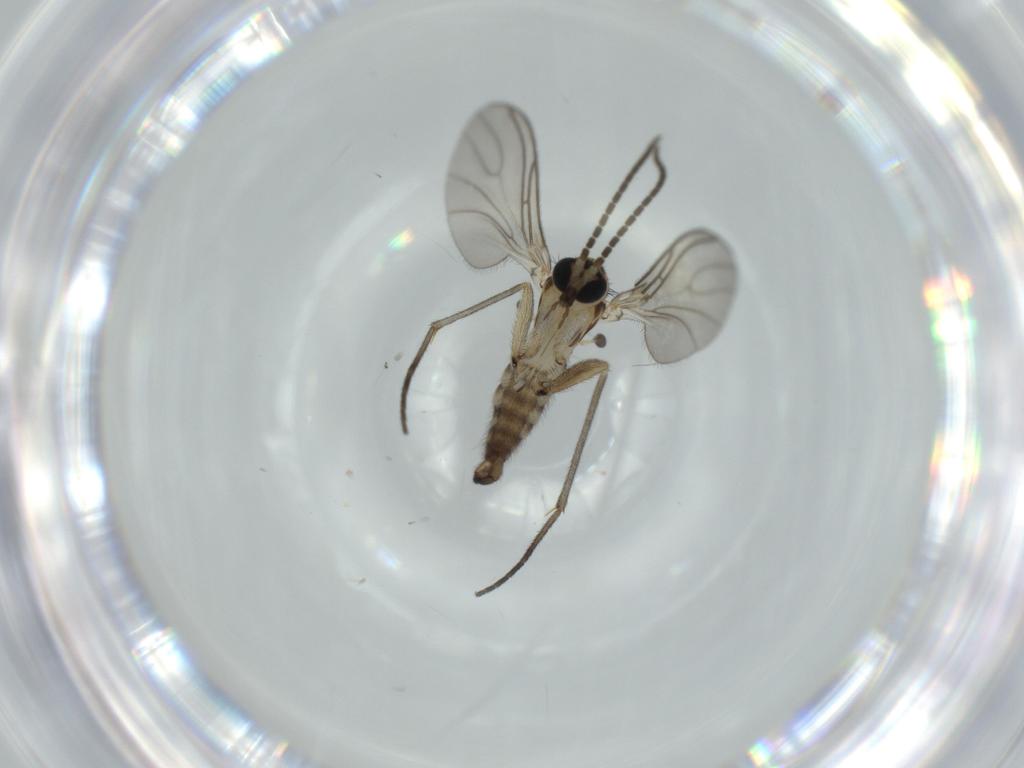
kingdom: Animalia
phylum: Arthropoda
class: Insecta
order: Diptera
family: Sciaridae
